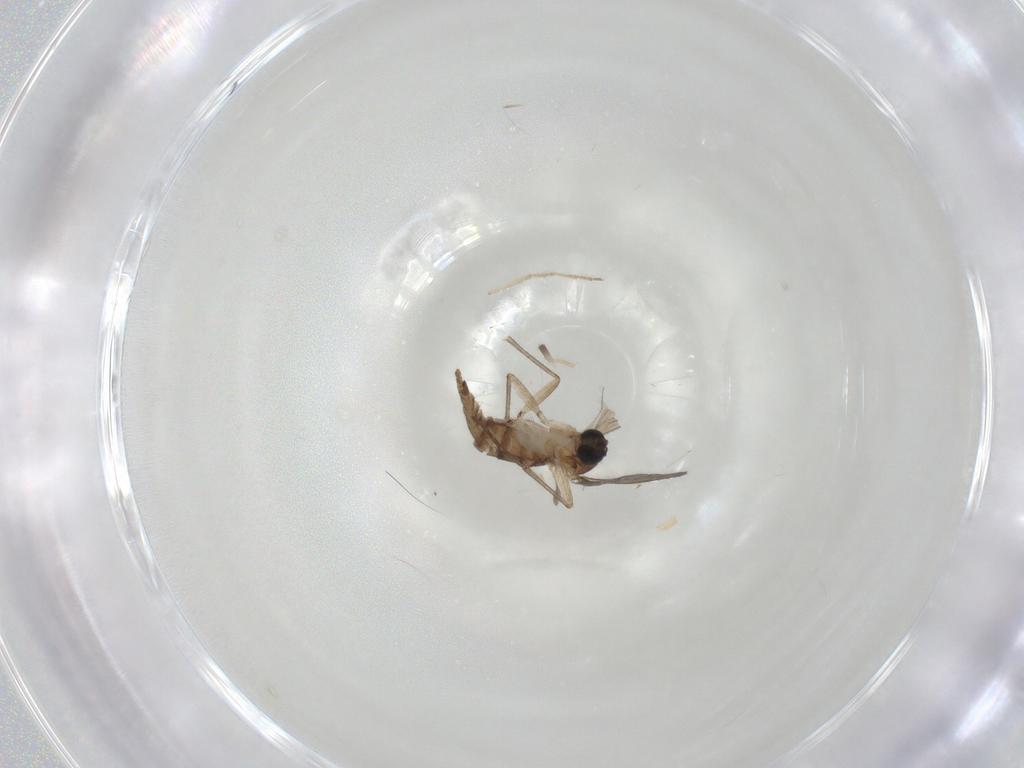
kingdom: Animalia
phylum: Arthropoda
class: Insecta
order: Diptera
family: Sciaridae
